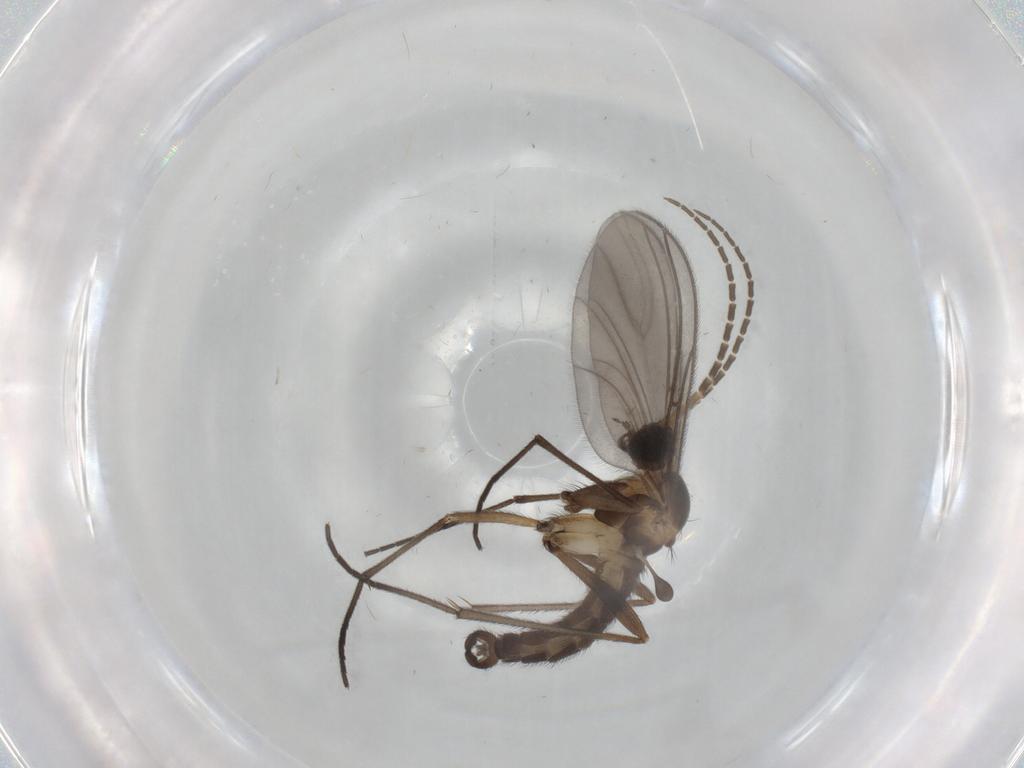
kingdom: Animalia
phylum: Arthropoda
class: Insecta
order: Diptera
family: Sciaridae
